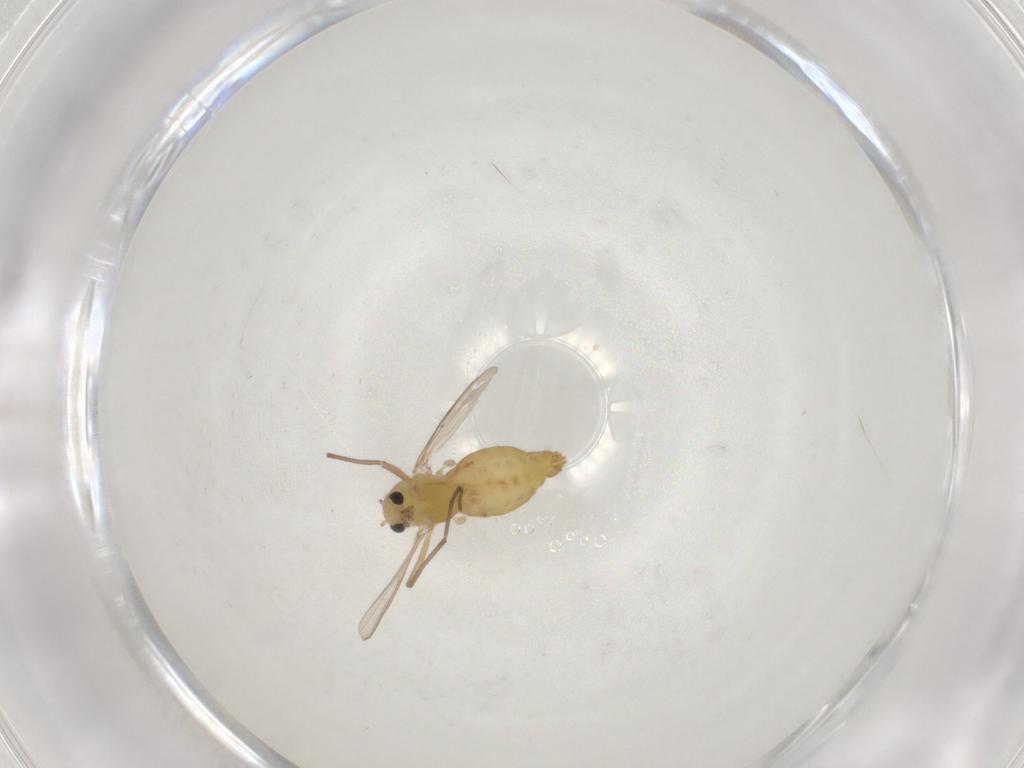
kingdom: Animalia
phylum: Arthropoda
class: Insecta
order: Diptera
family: Chironomidae
